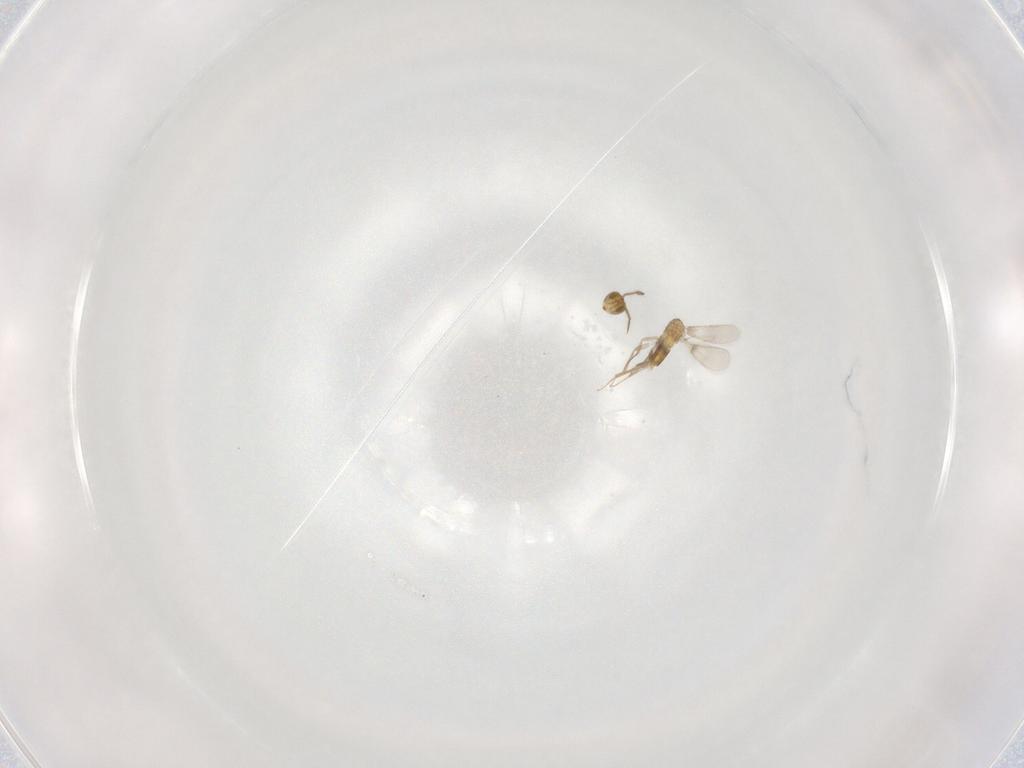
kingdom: Animalia
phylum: Arthropoda
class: Insecta
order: Hymenoptera
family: Aphelinidae
